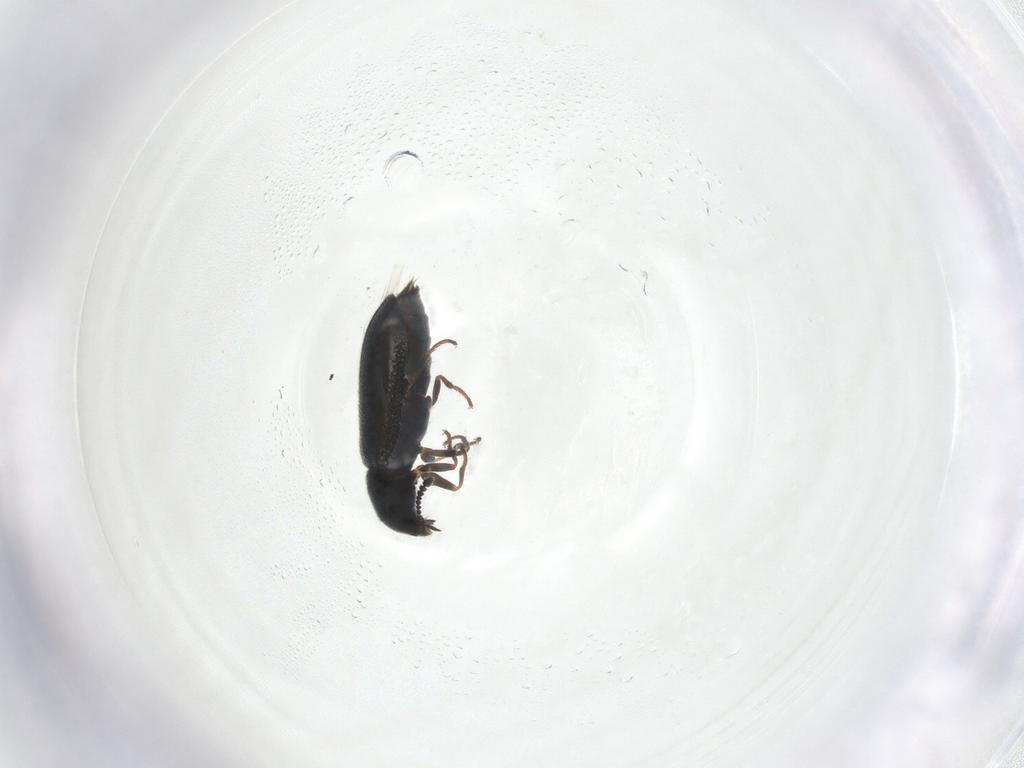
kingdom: Animalia
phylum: Arthropoda
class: Insecta
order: Coleoptera
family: Melyridae
